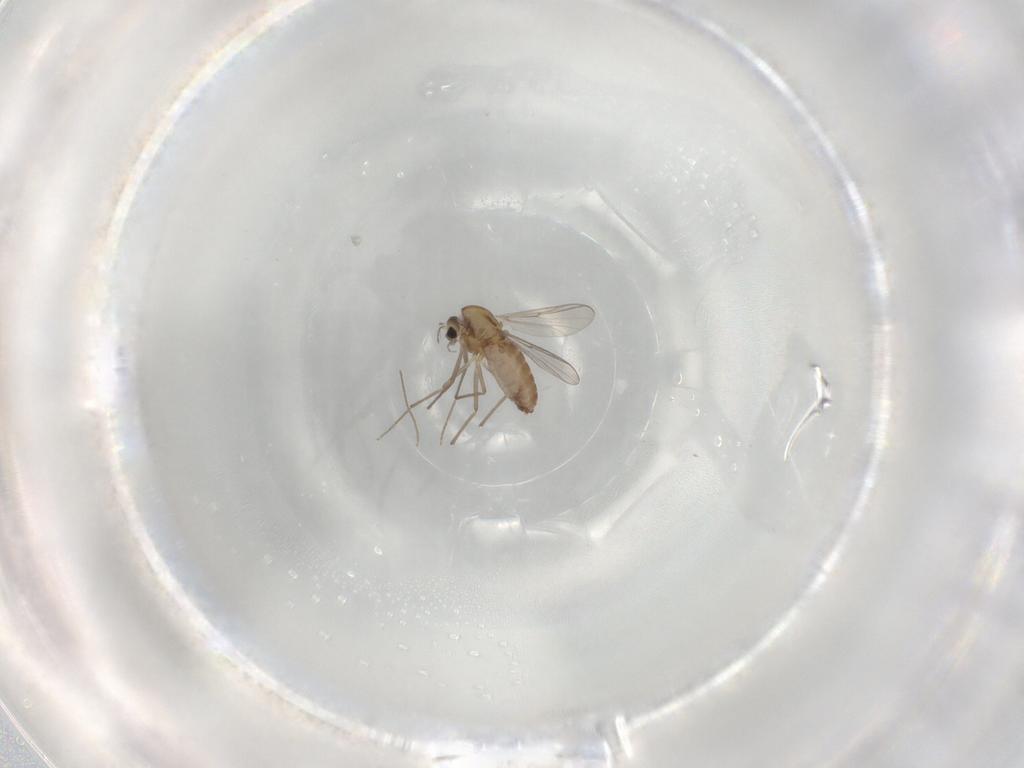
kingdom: Animalia
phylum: Arthropoda
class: Insecta
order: Diptera
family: Chironomidae
